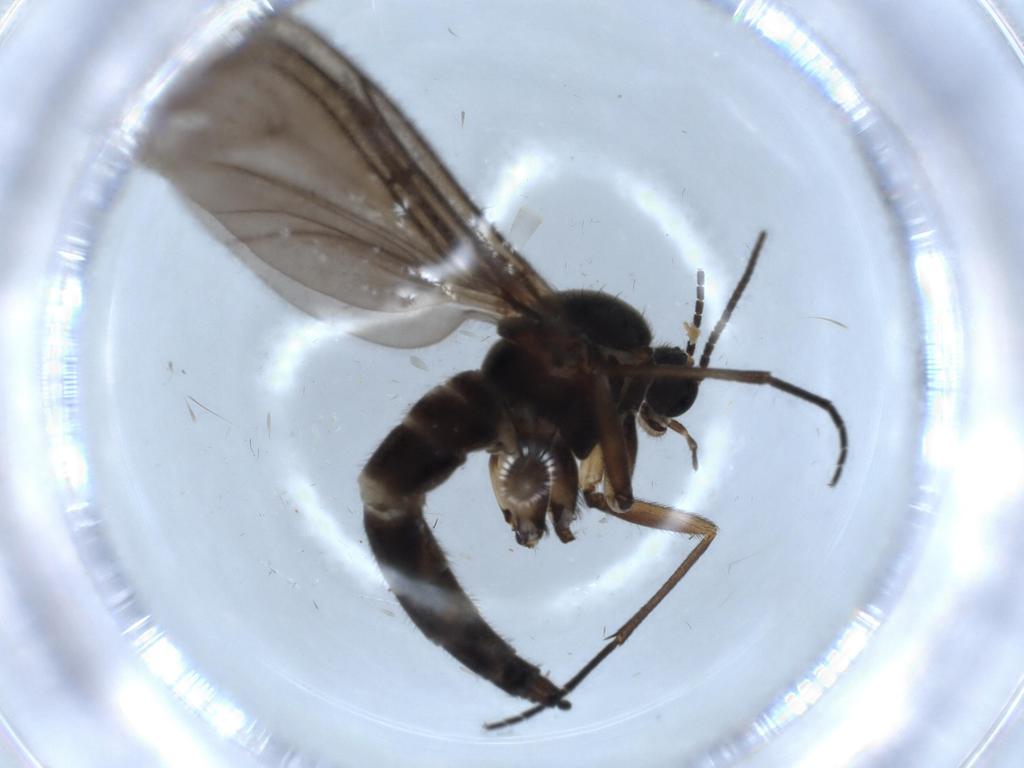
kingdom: Animalia
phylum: Arthropoda
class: Insecta
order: Diptera
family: Sciaridae
